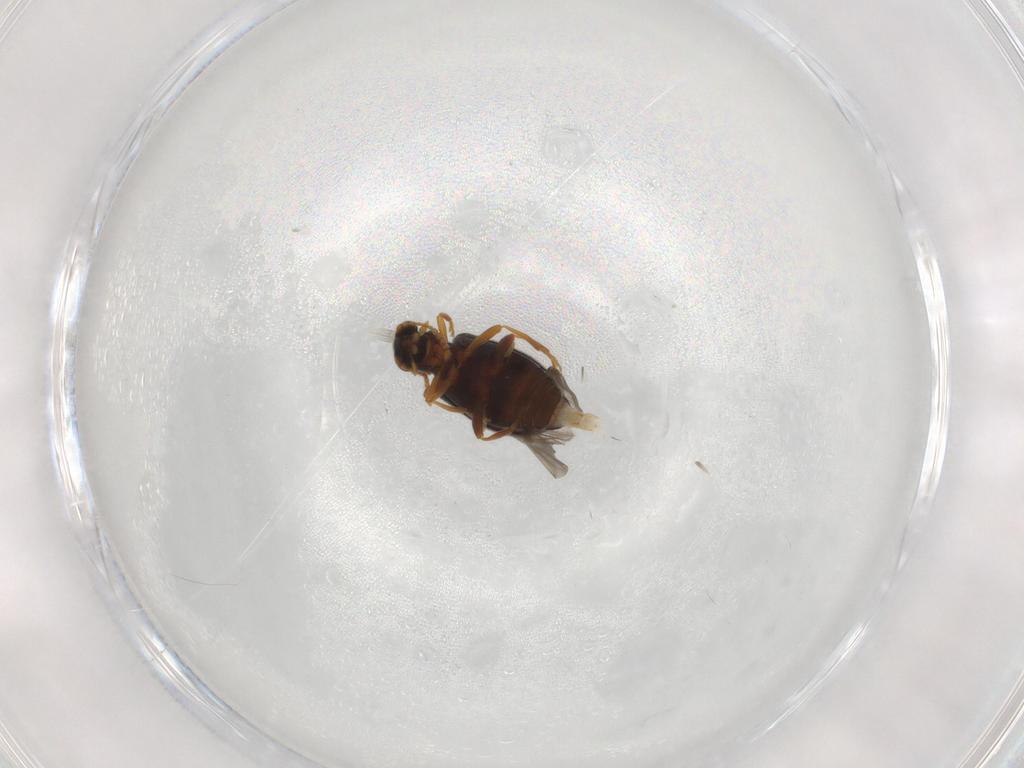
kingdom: Animalia
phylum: Arthropoda
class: Insecta
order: Coleoptera
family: Aderidae
